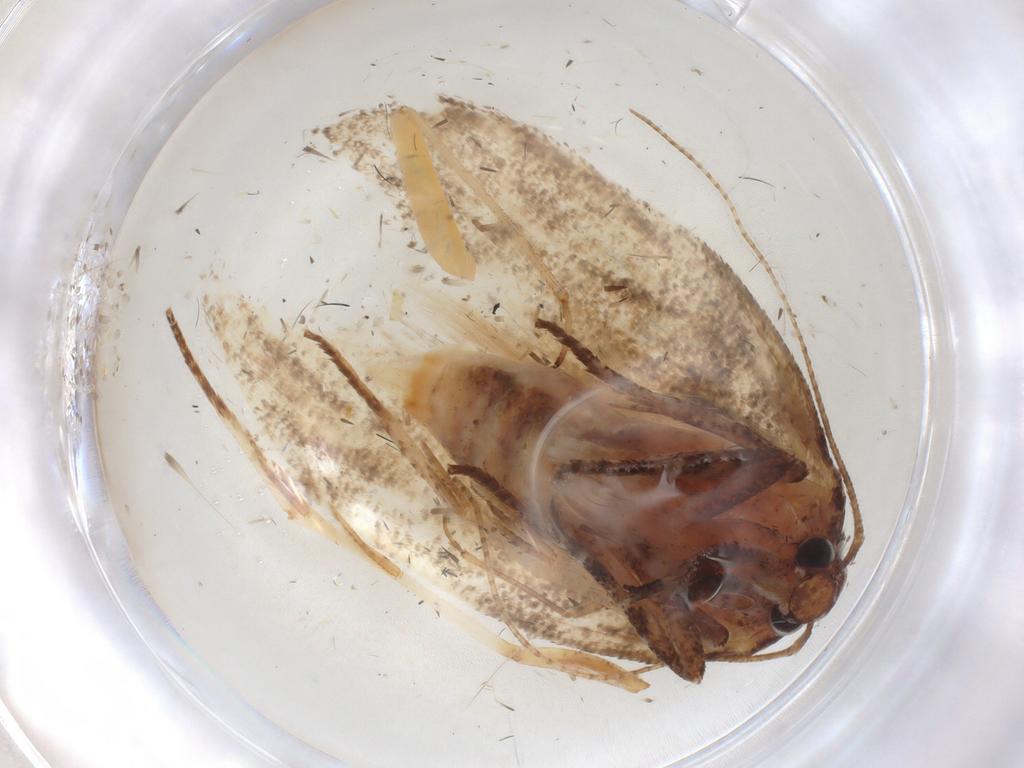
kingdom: Animalia
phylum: Arthropoda
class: Insecta
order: Lepidoptera
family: Cosmopterigidae
